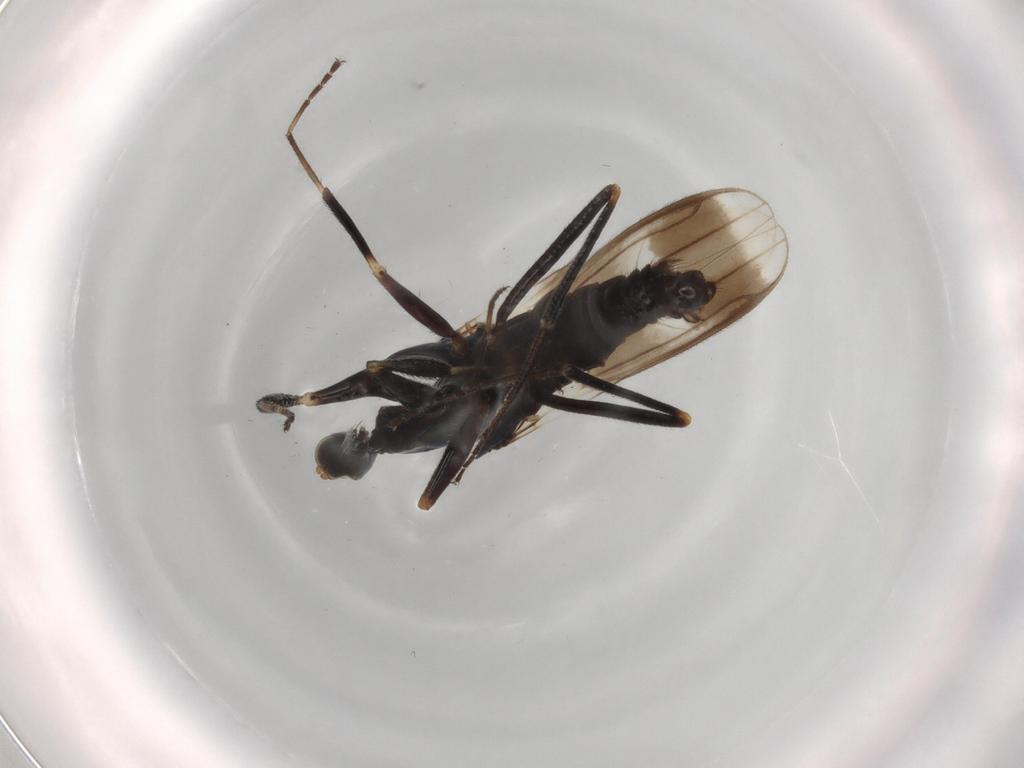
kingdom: Animalia
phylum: Arthropoda
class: Insecta
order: Diptera
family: Hybotidae
